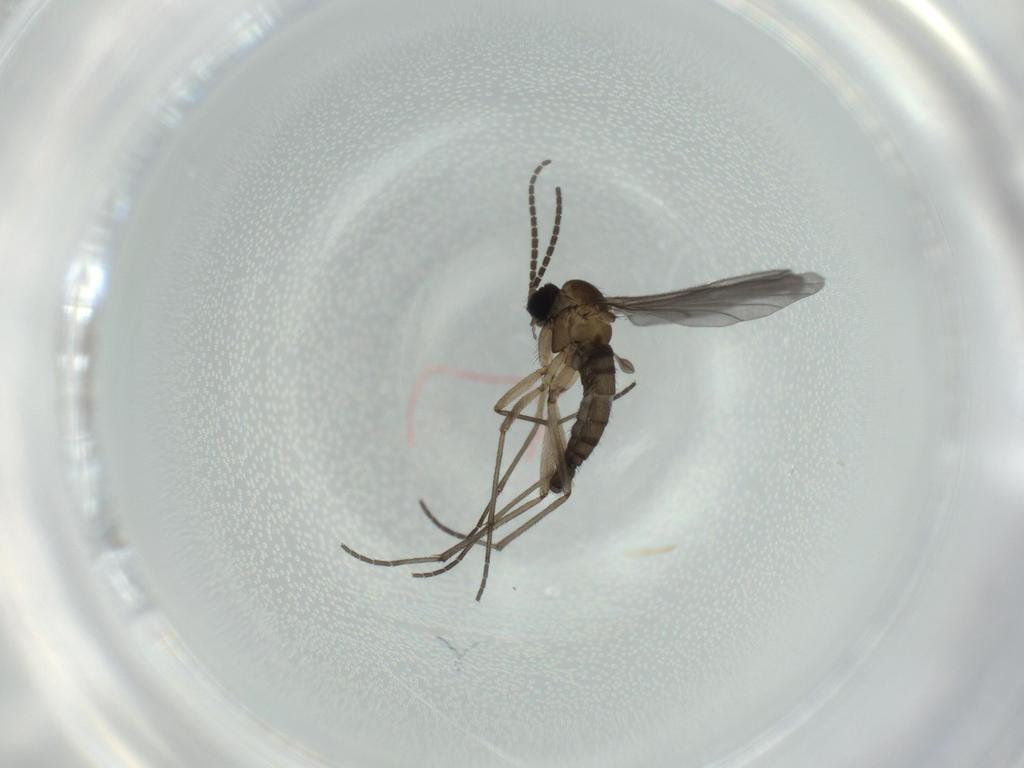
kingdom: Animalia
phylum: Arthropoda
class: Insecta
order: Diptera
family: Sciaridae
